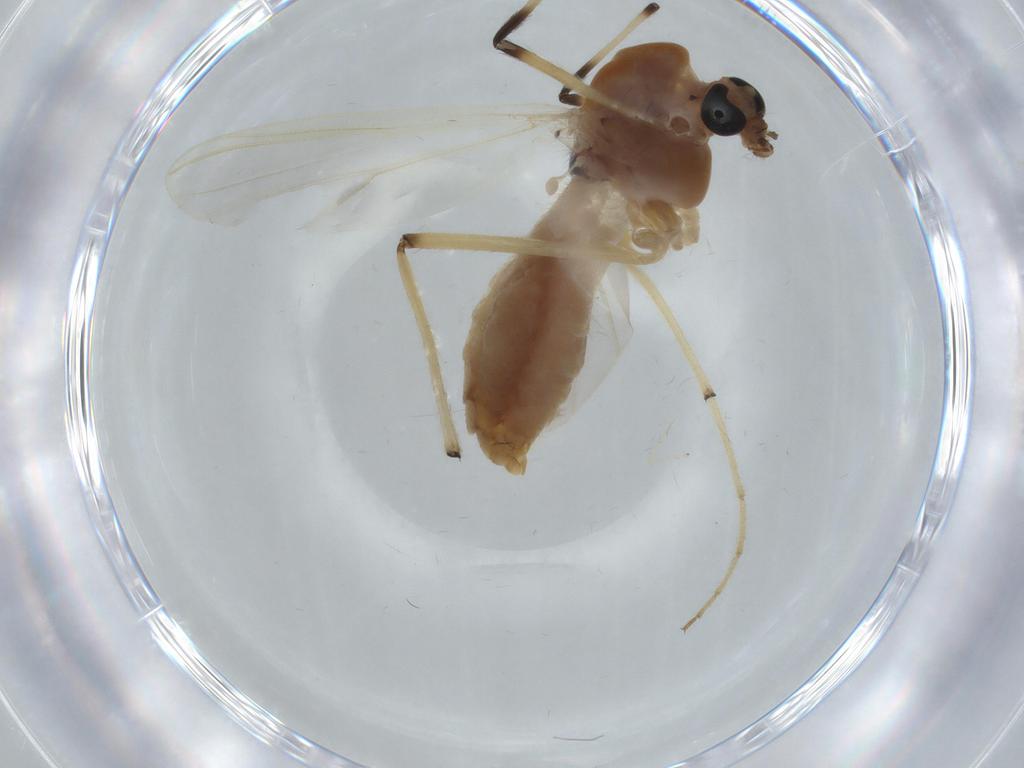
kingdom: Animalia
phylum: Arthropoda
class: Insecta
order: Diptera
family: Chironomidae
